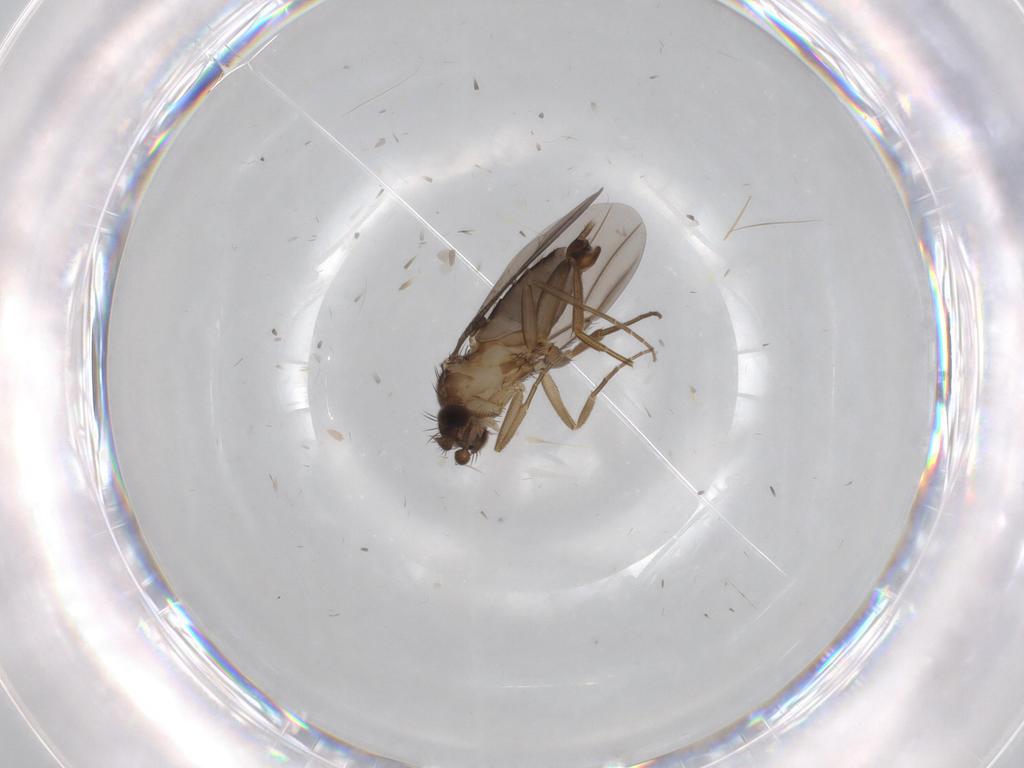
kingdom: Animalia
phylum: Arthropoda
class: Insecta
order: Diptera
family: Sciaridae
